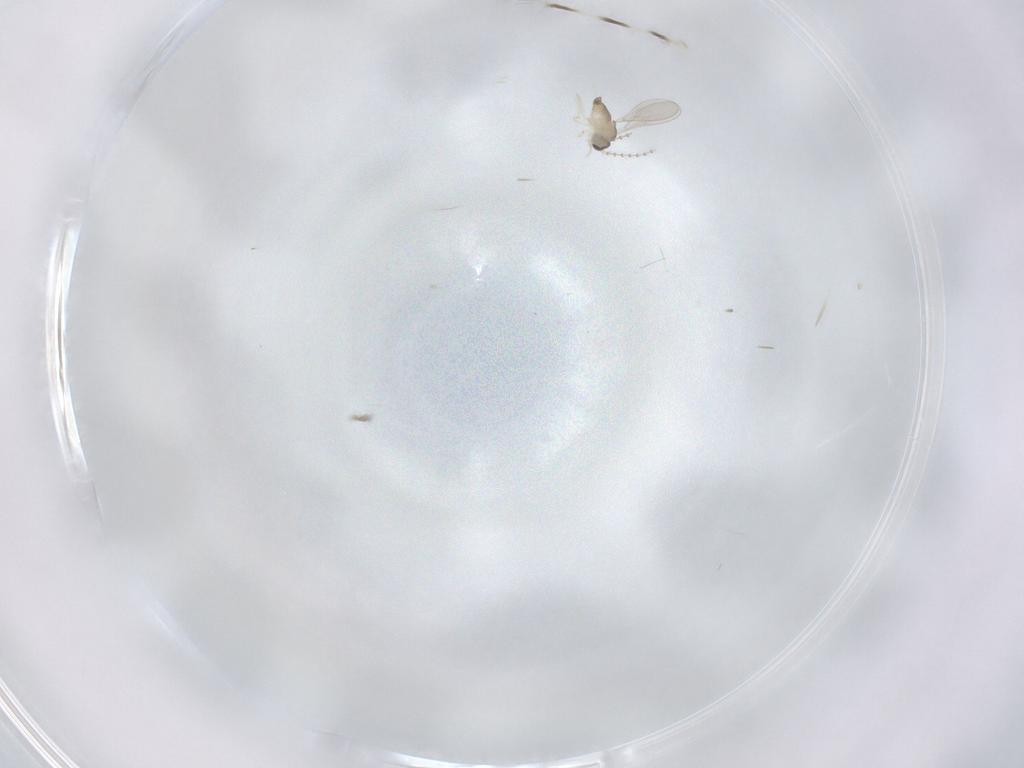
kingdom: Animalia
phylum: Arthropoda
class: Insecta
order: Diptera
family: Cecidomyiidae
